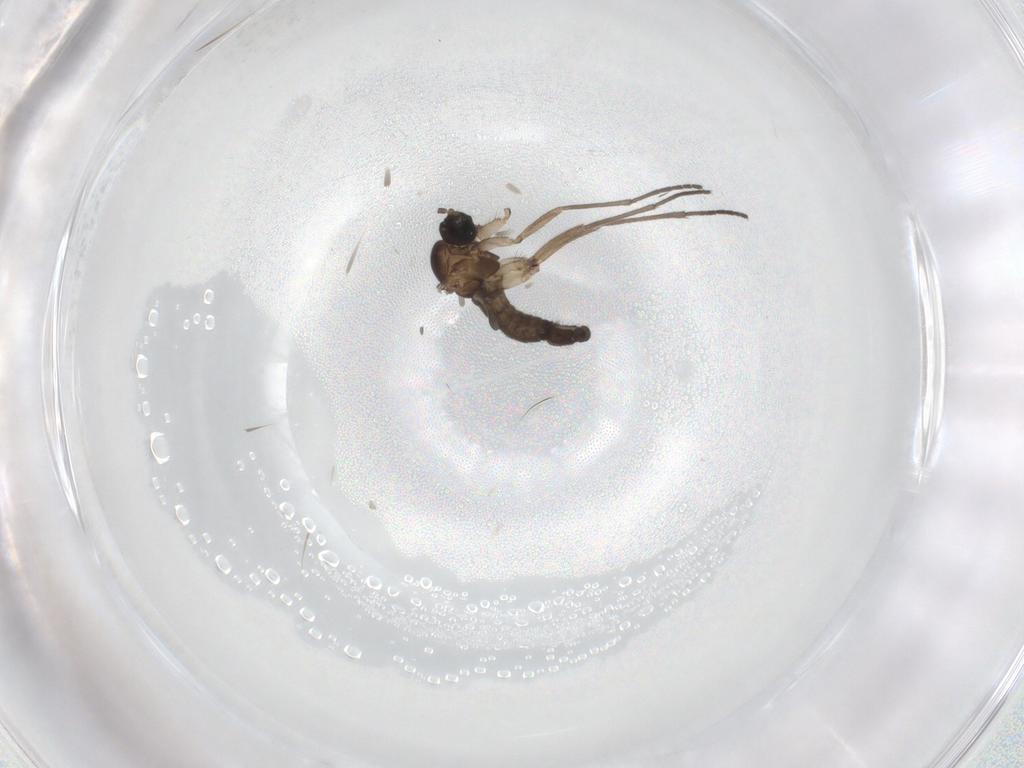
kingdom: Animalia
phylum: Arthropoda
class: Insecta
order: Diptera
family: Sciaridae
